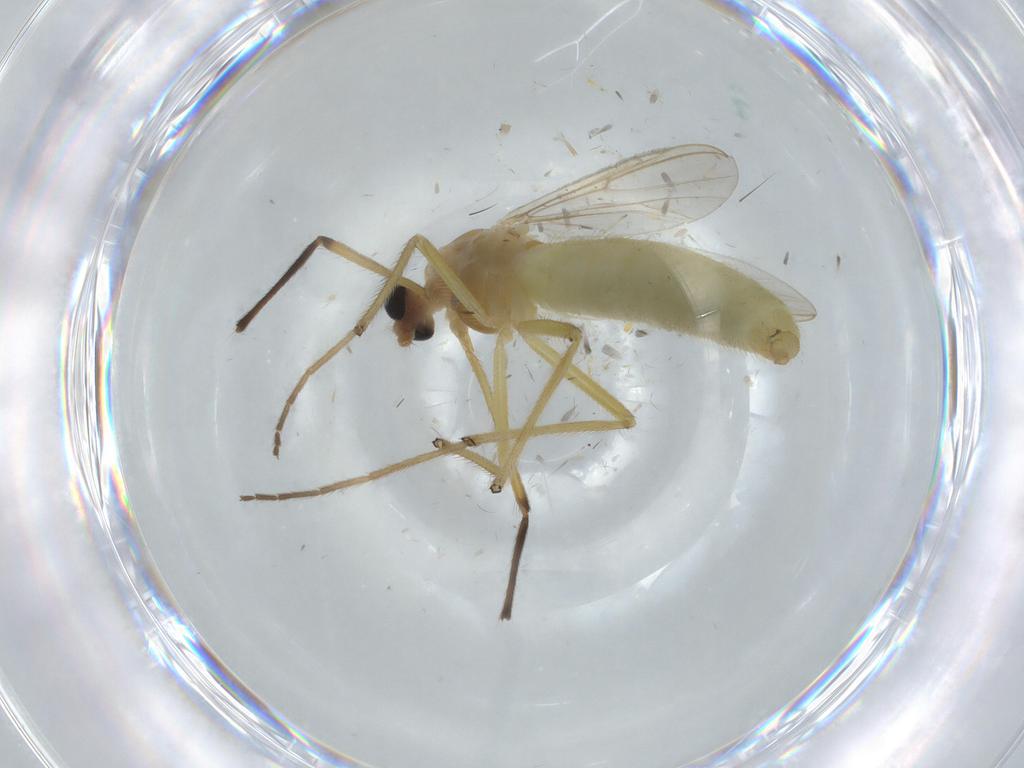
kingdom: Animalia
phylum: Arthropoda
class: Insecta
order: Diptera
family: Chironomidae
